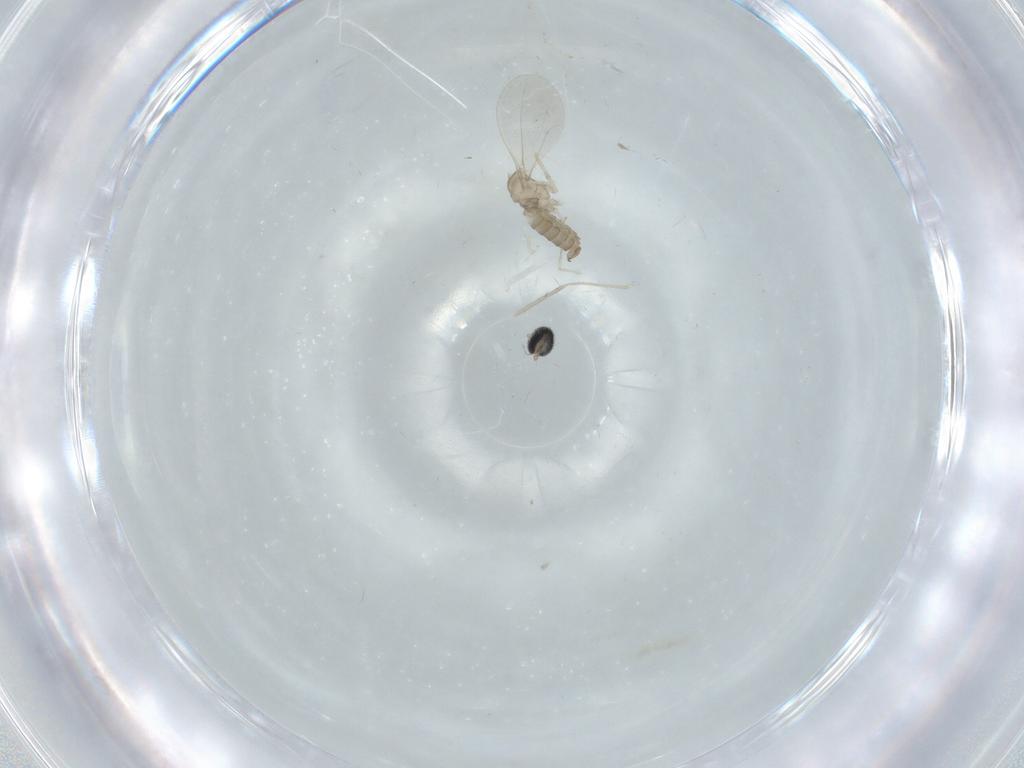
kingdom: Animalia
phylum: Arthropoda
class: Insecta
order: Diptera
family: Cecidomyiidae
